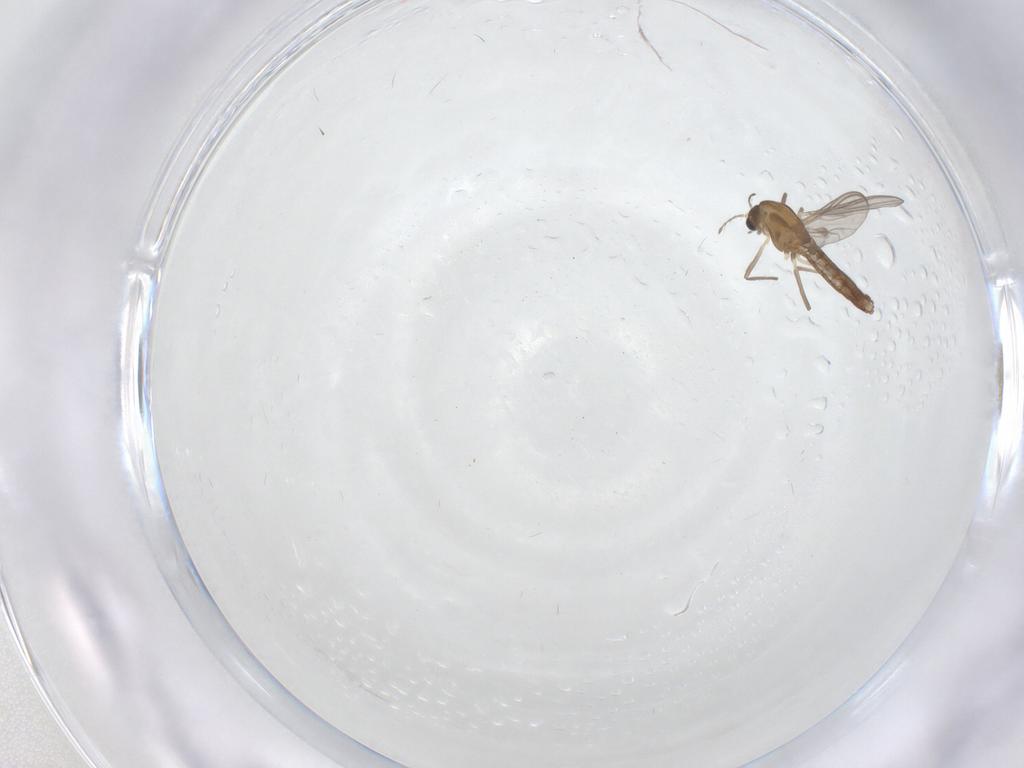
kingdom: Animalia
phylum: Arthropoda
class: Insecta
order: Diptera
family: Chironomidae
